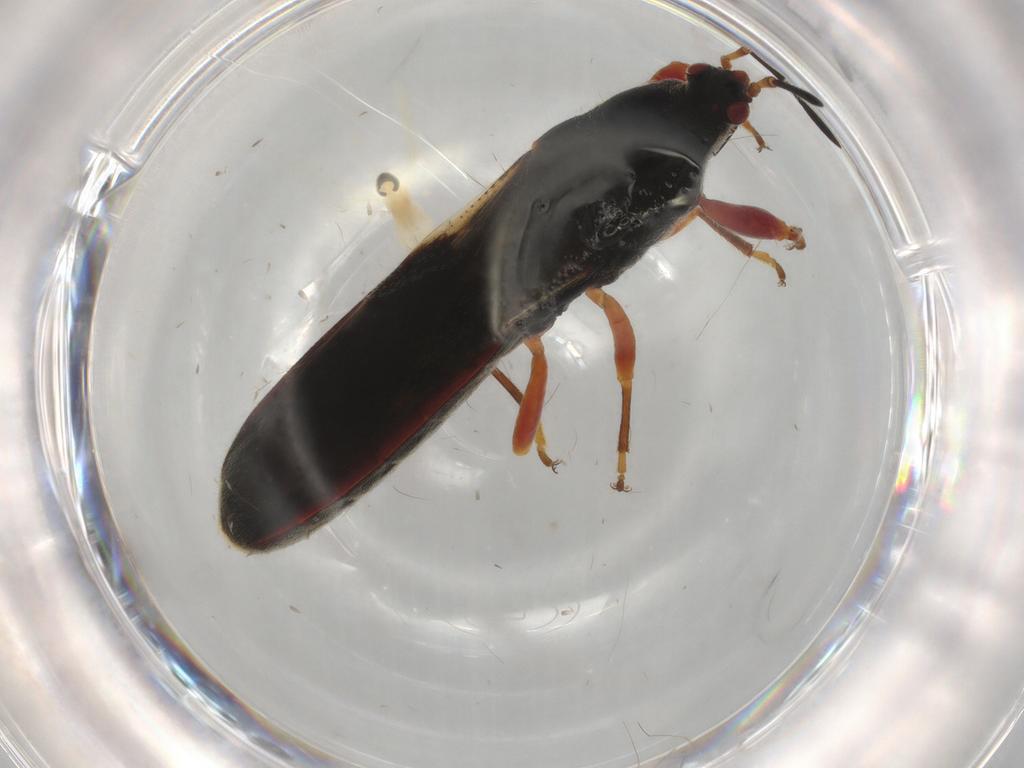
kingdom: Animalia
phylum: Arthropoda
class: Insecta
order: Diptera
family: Cecidomyiidae
